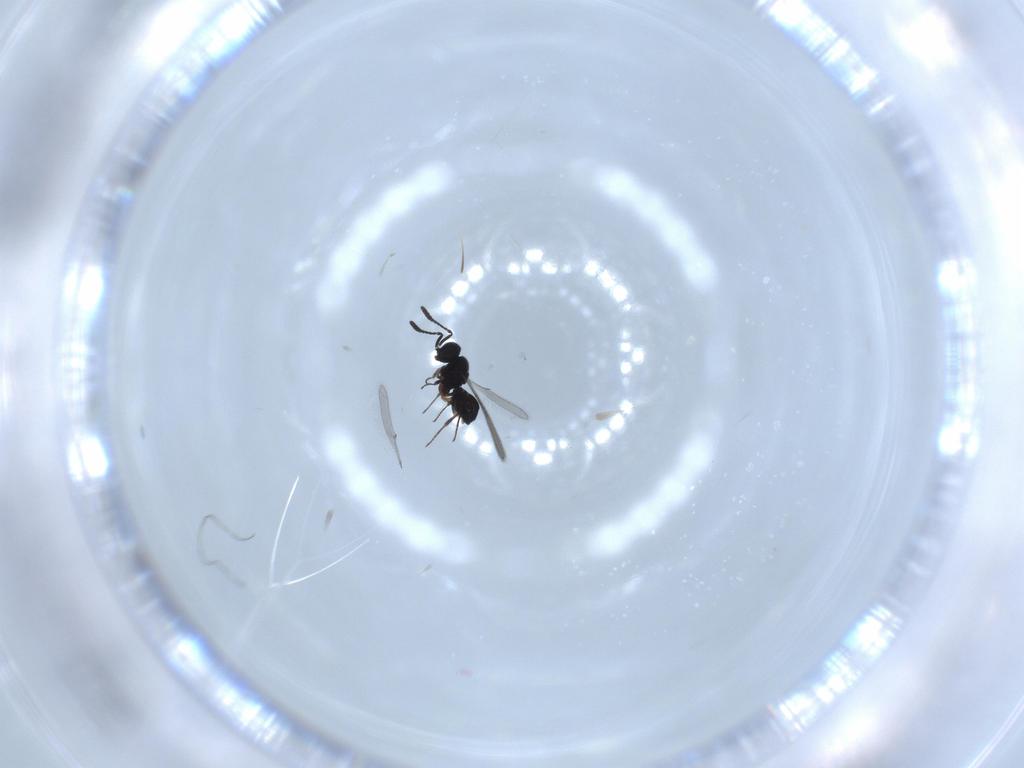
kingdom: Animalia
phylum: Arthropoda
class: Insecta
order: Hymenoptera
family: Scelionidae
